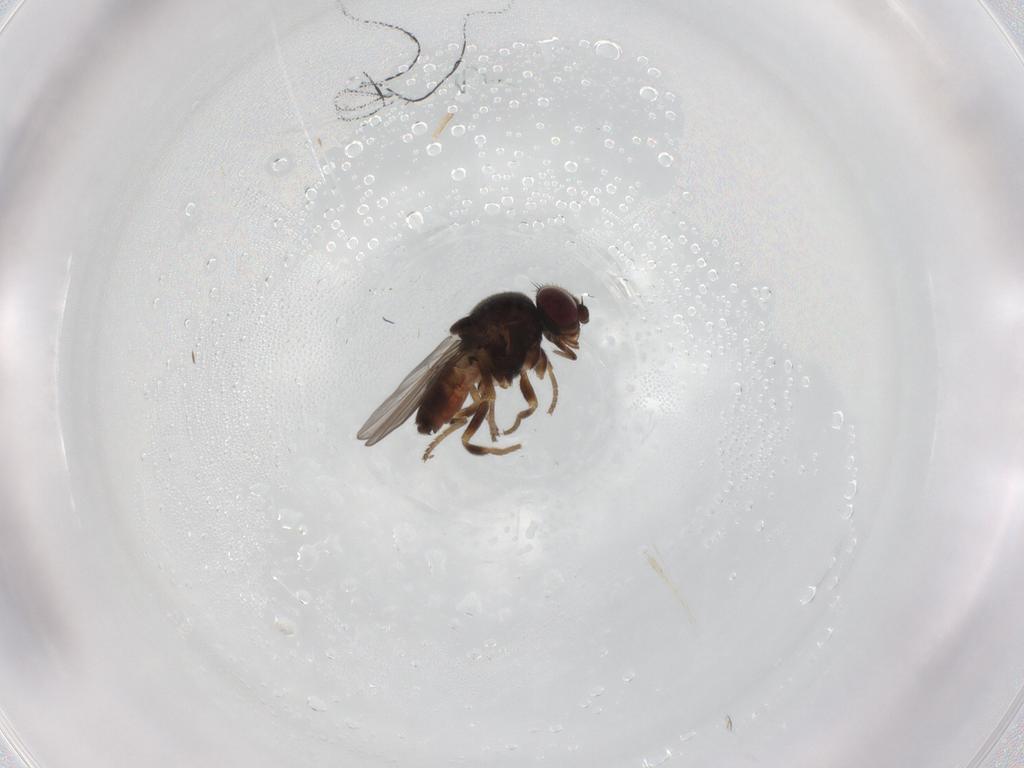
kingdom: Animalia
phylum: Arthropoda
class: Insecta
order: Diptera
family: Chloropidae
